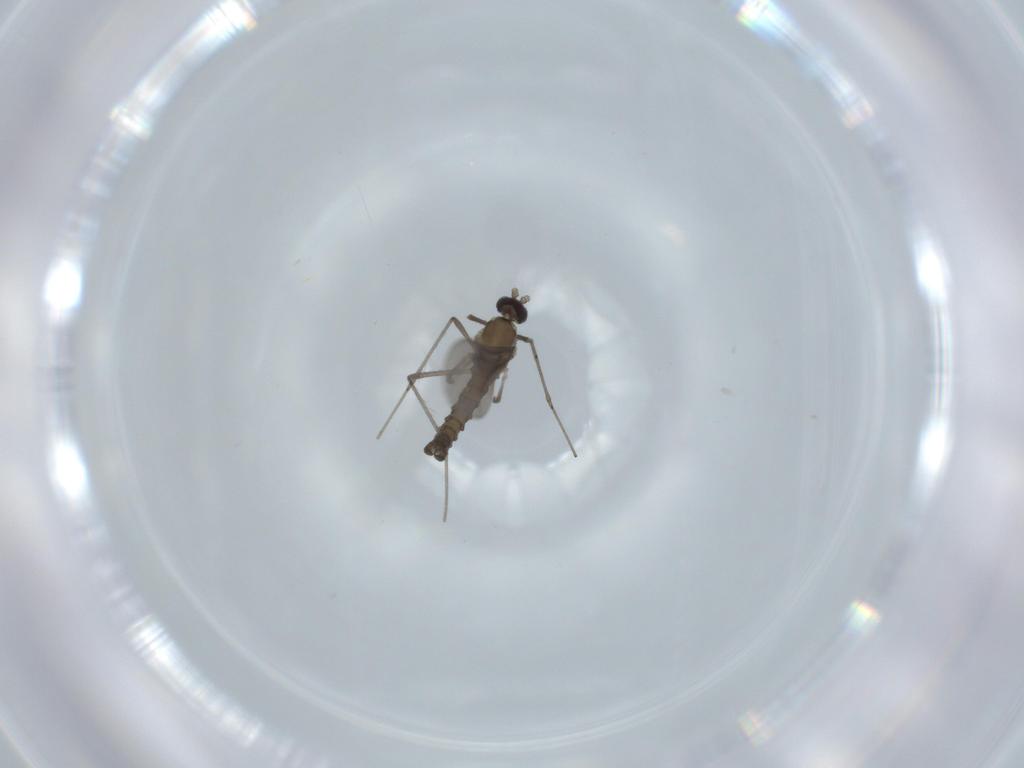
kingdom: Animalia
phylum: Arthropoda
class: Insecta
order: Diptera
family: Cecidomyiidae
